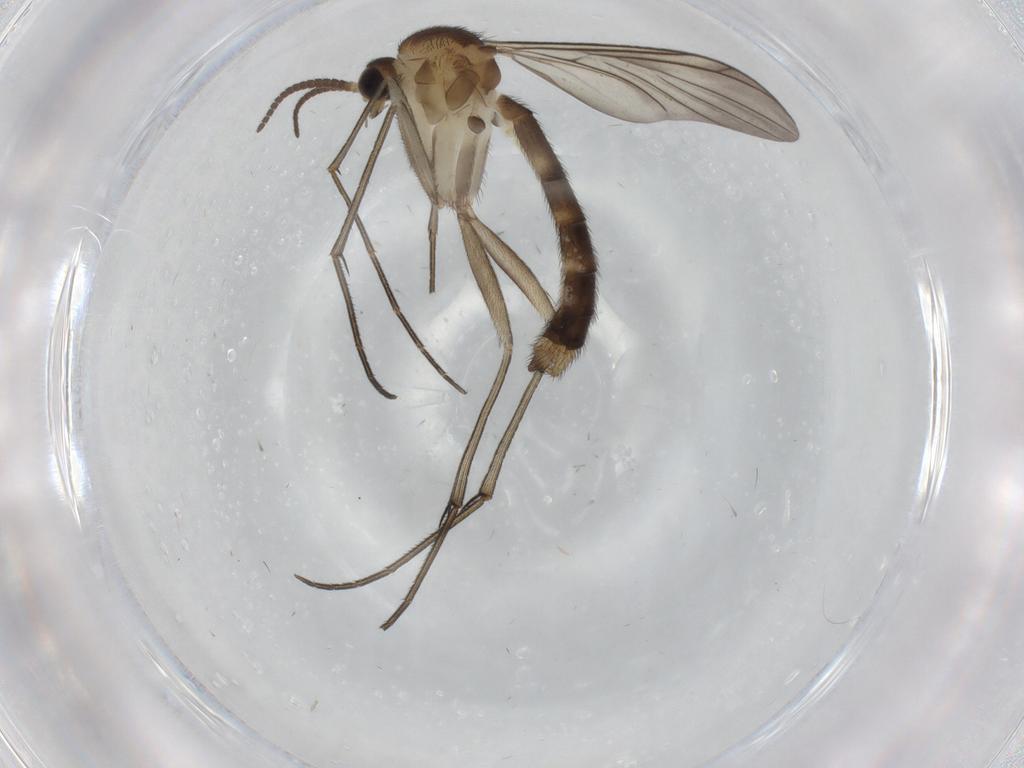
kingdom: Animalia
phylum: Arthropoda
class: Insecta
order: Diptera
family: Mycetophilidae
